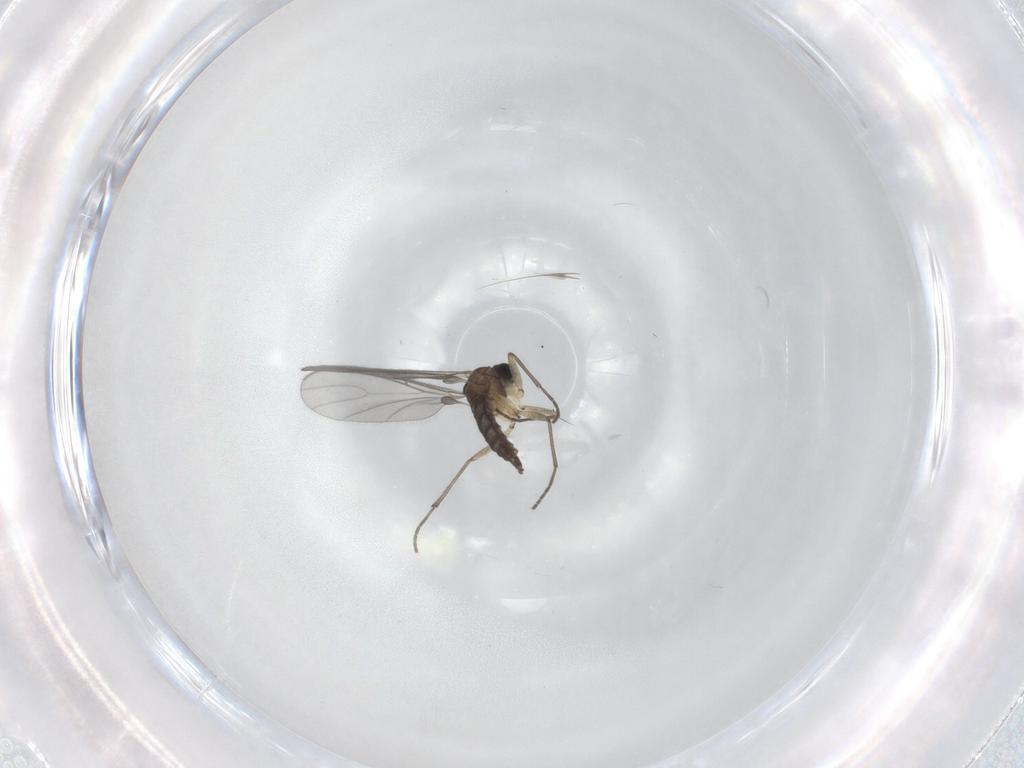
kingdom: Animalia
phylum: Arthropoda
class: Insecta
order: Diptera
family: Sciaridae
